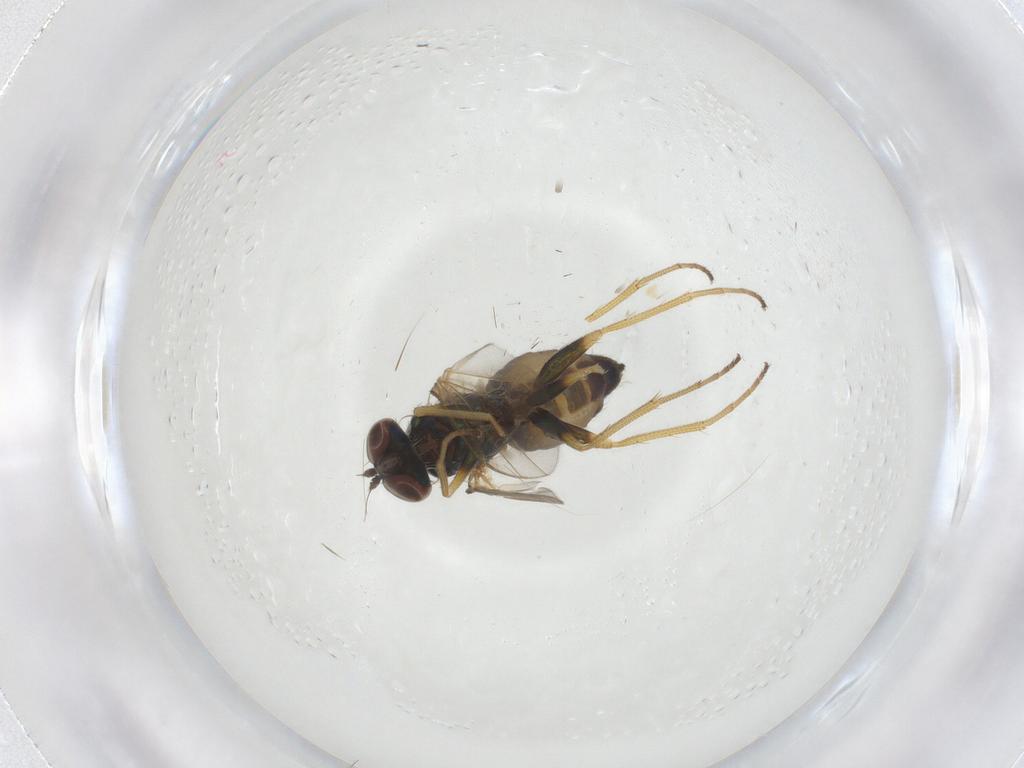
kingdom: Animalia
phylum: Arthropoda
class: Insecta
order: Diptera
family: Dolichopodidae
